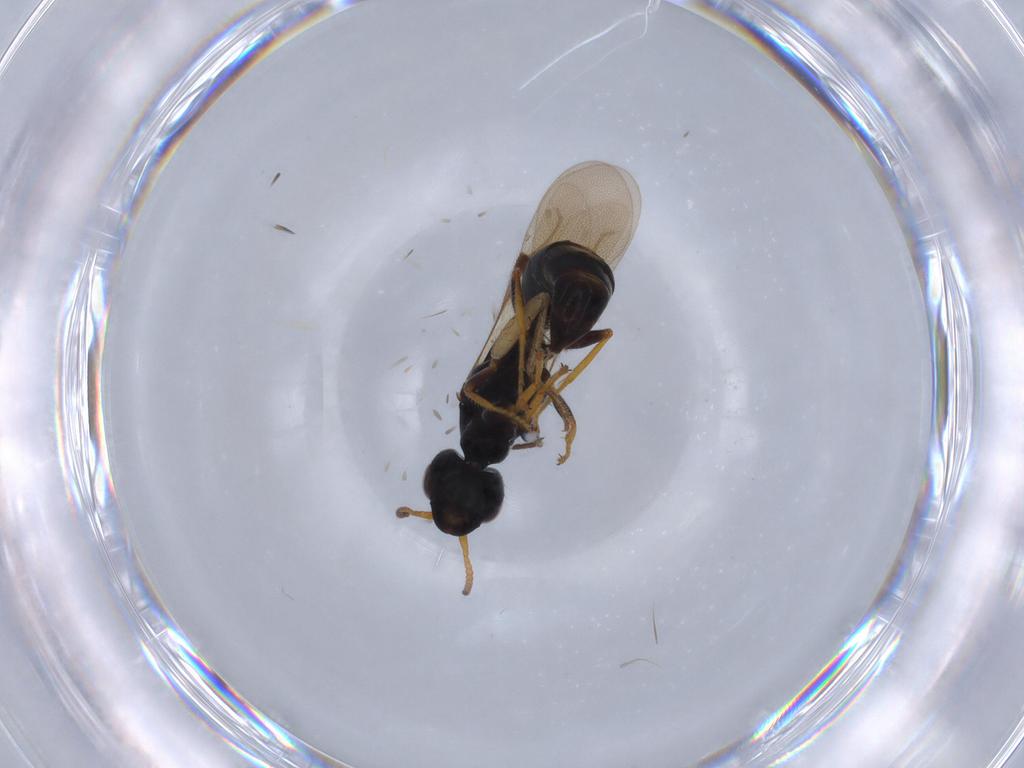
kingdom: Animalia
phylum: Arthropoda
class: Insecta
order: Hymenoptera
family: Bethylidae
